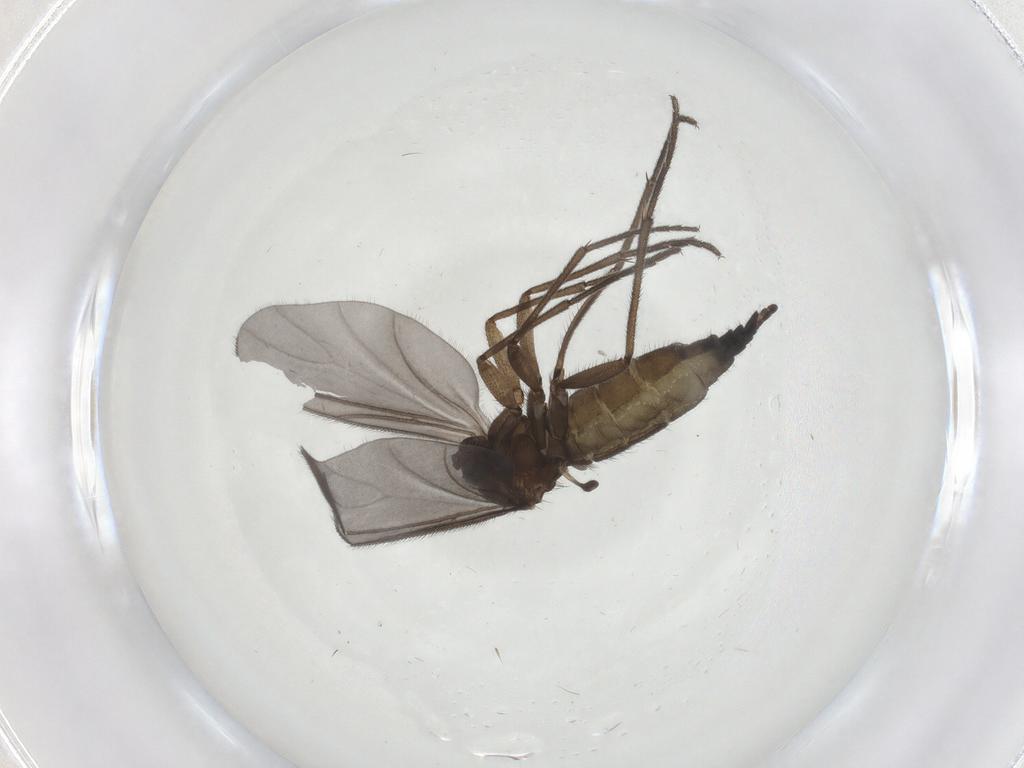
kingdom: Animalia
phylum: Arthropoda
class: Insecta
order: Diptera
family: Sciaridae
